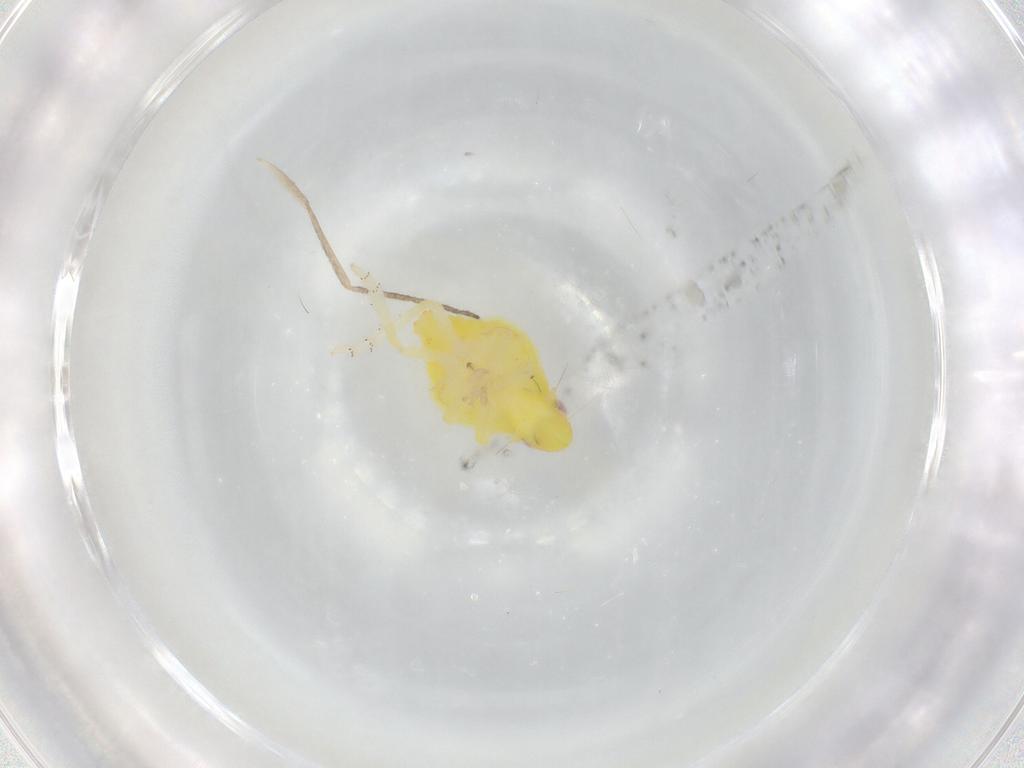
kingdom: Animalia
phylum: Arthropoda
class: Insecta
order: Diptera
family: Cecidomyiidae
